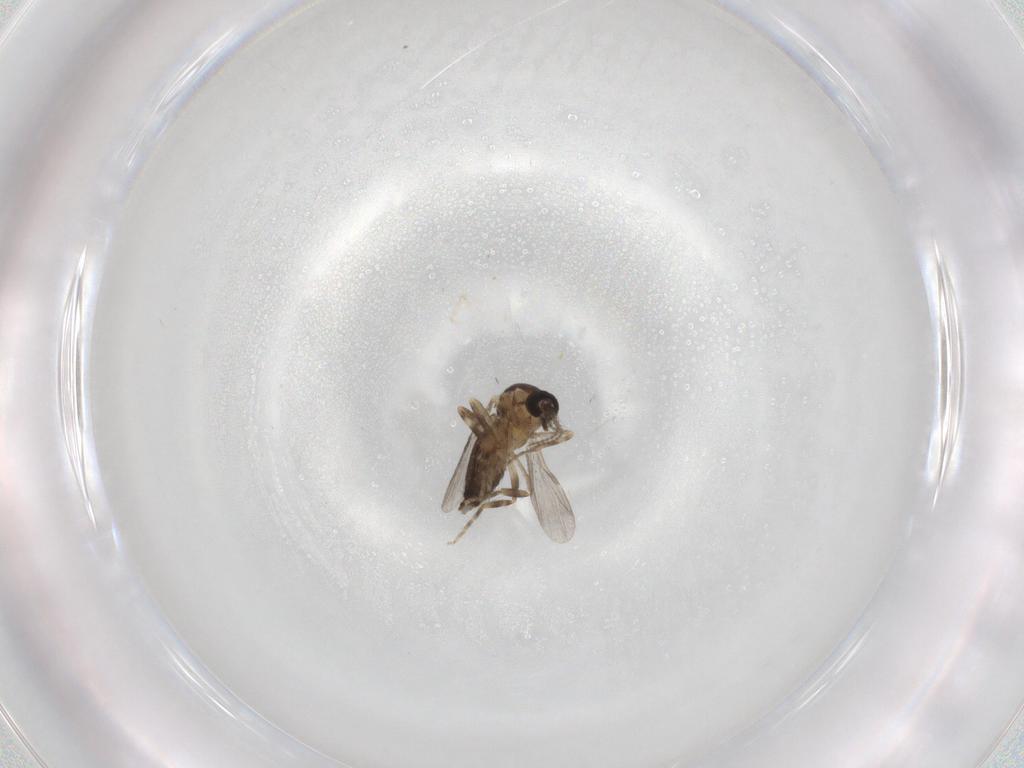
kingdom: Animalia
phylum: Arthropoda
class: Insecta
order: Diptera
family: Ceratopogonidae
